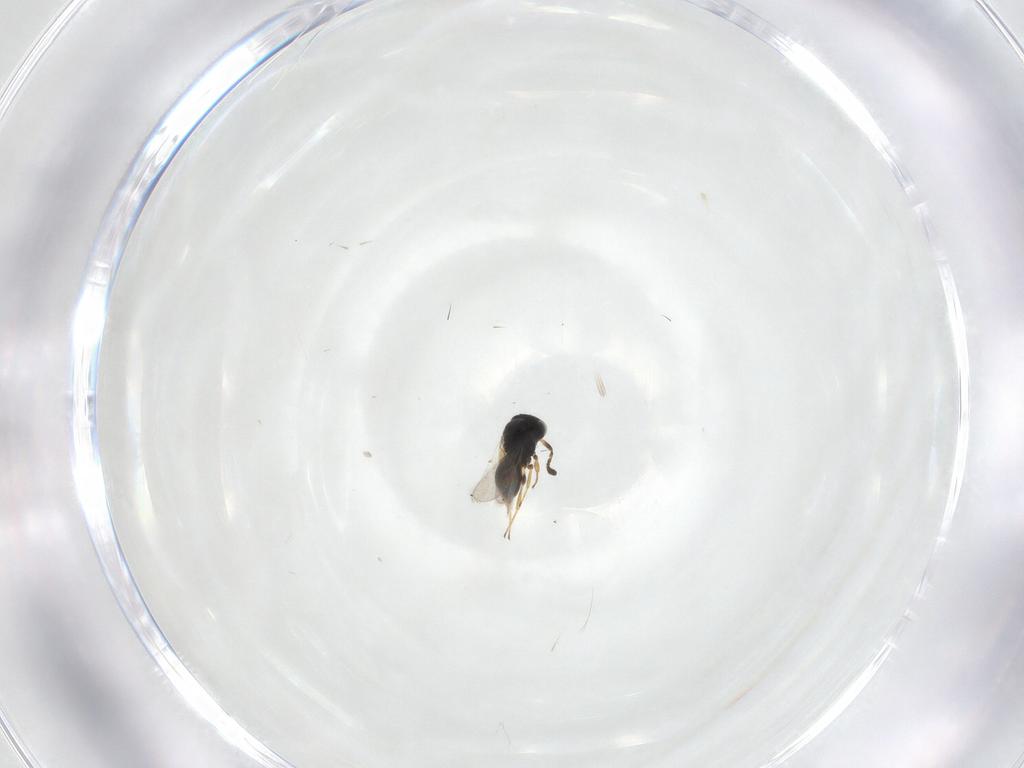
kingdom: Animalia
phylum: Arthropoda
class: Insecta
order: Hymenoptera
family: Scelionidae
